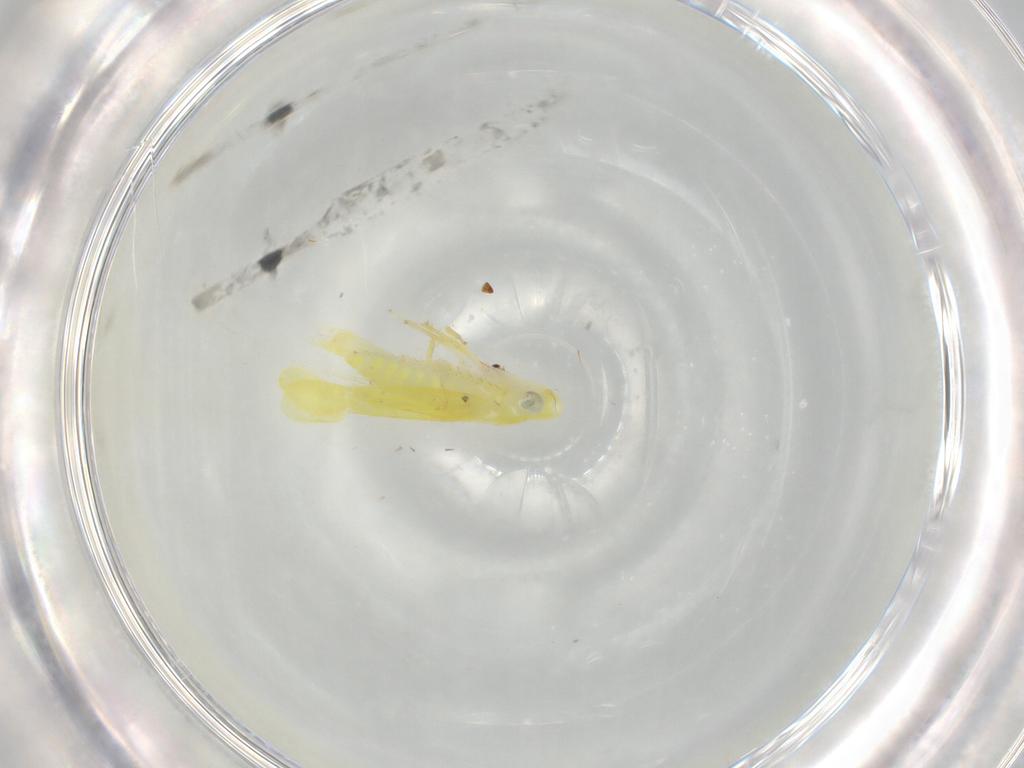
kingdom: Animalia
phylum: Arthropoda
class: Insecta
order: Hemiptera
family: Cicadellidae
